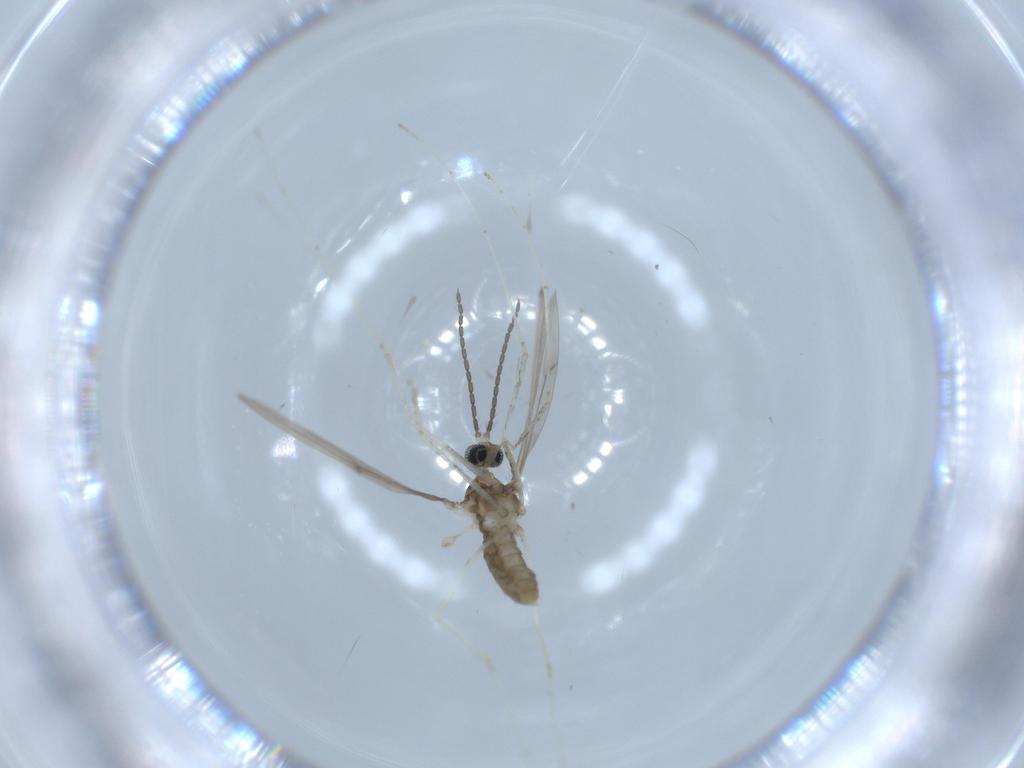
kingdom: Animalia
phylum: Arthropoda
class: Insecta
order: Diptera
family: Cecidomyiidae
